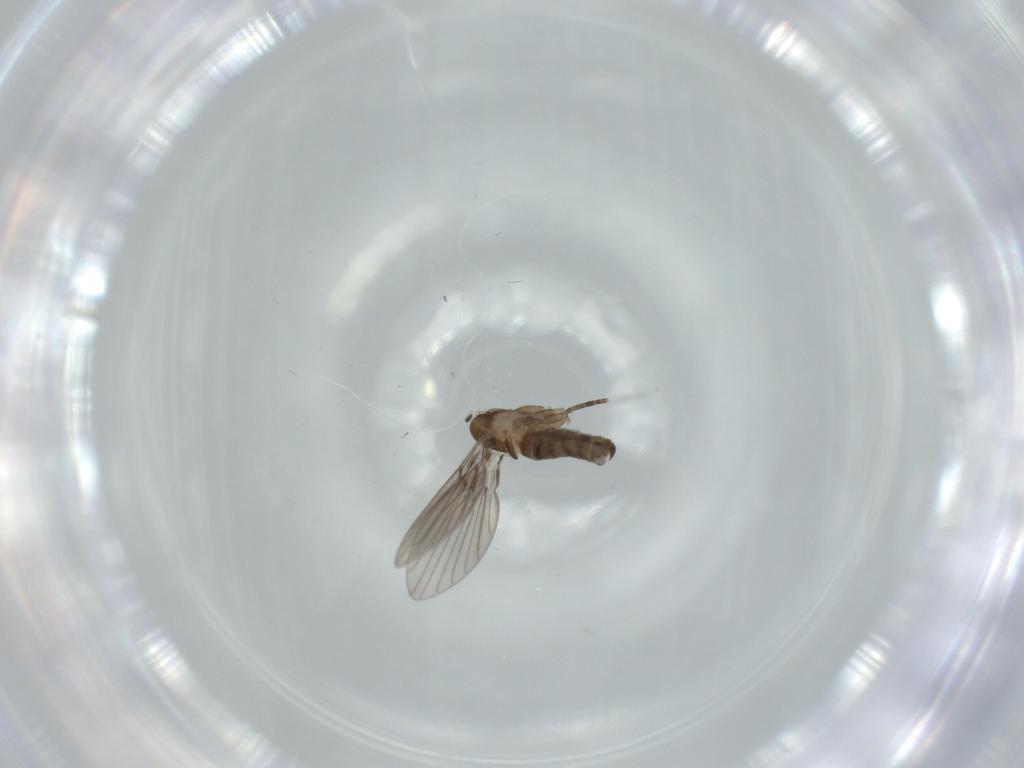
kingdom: Animalia
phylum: Arthropoda
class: Insecta
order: Diptera
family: Psychodidae
